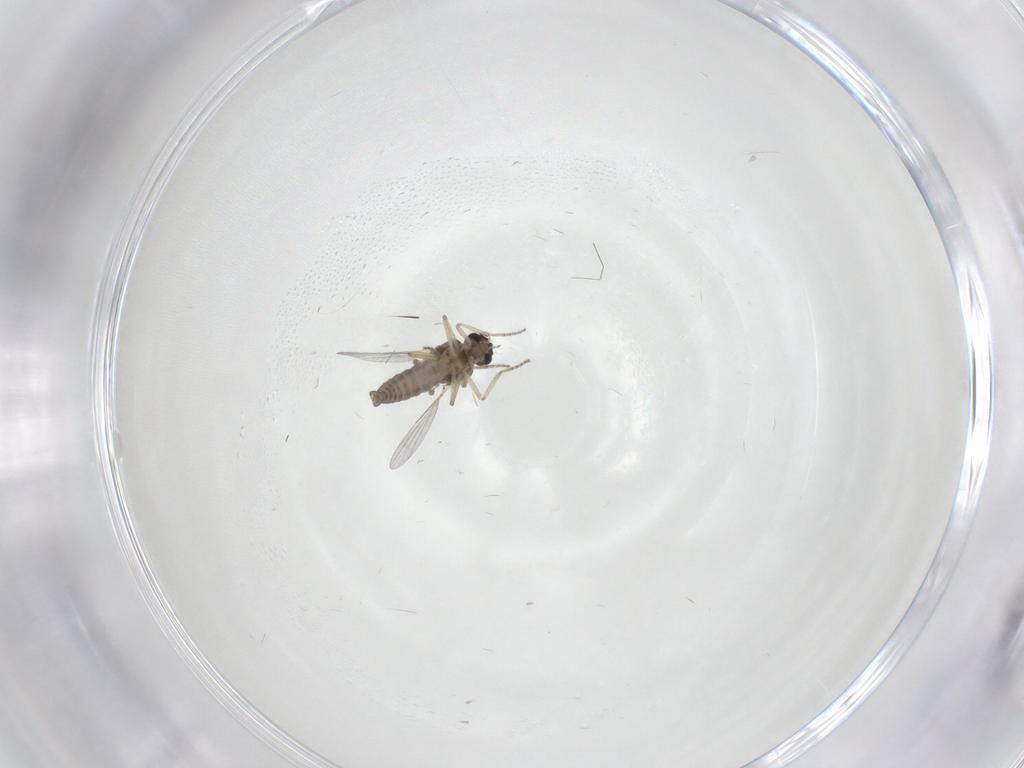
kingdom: Animalia
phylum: Arthropoda
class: Insecta
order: Diptera
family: Ceratopogonidae
